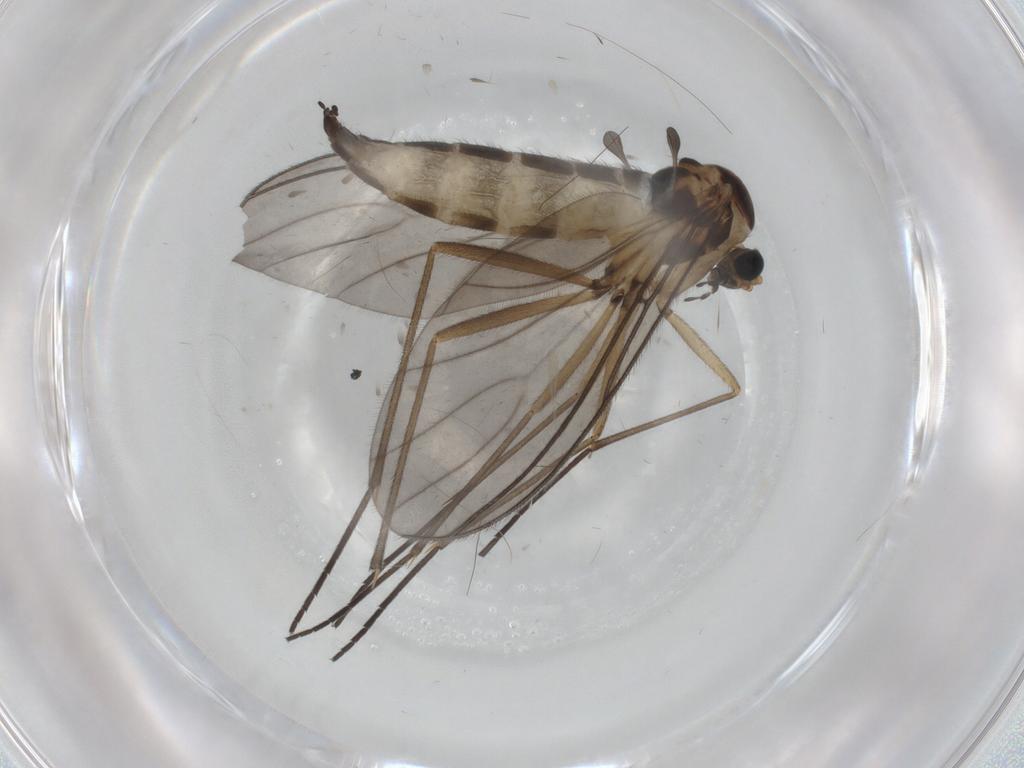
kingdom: Animalia
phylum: Arthropoda
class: Insecta
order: Diptera
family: Sciaridae
